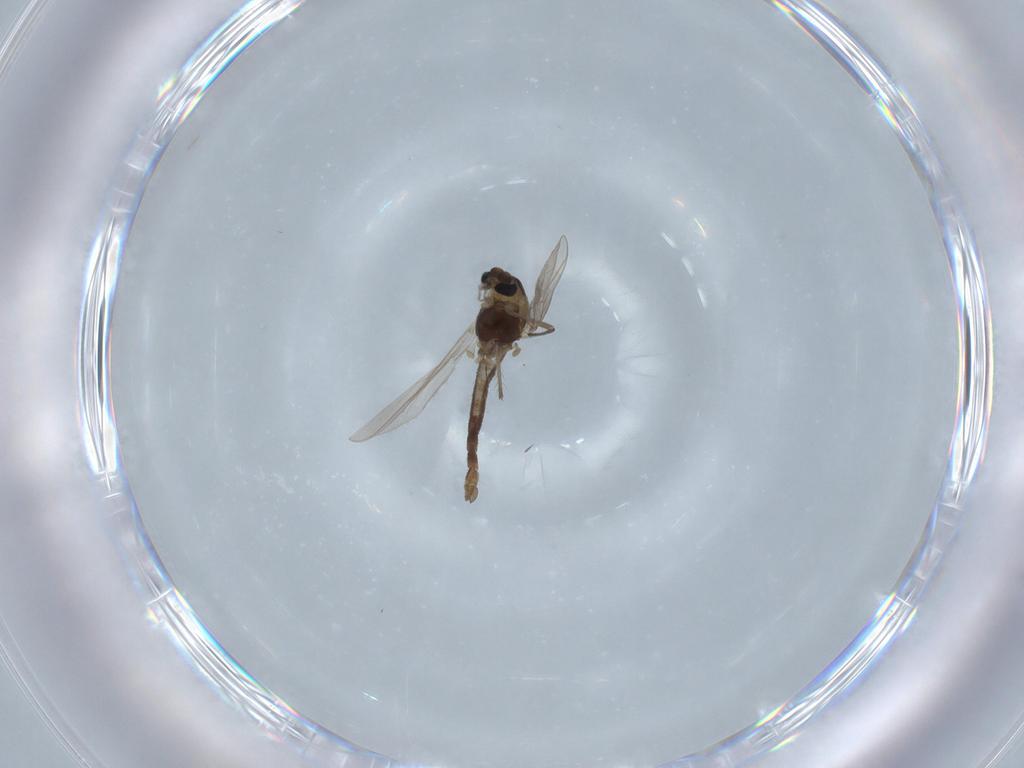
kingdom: Animalia
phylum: Arthropoda
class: Insecta
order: Diptera
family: Chironomidae
